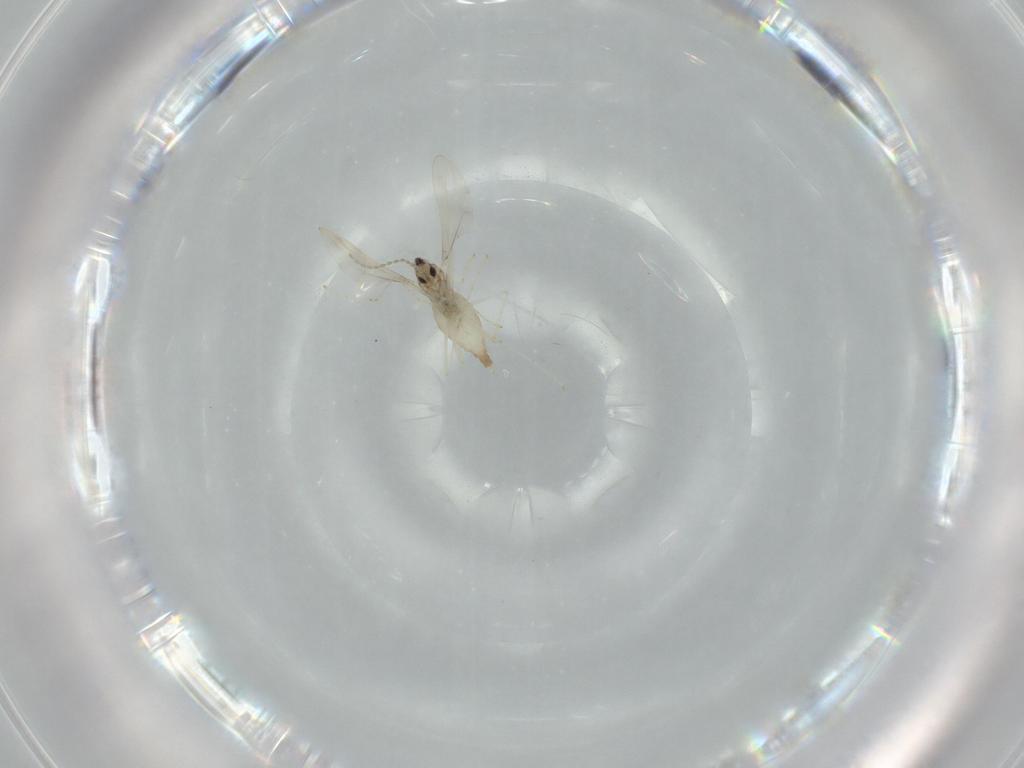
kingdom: Animalia
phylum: Arthropoda
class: Insecta
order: Diptera
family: Cecidomyiidae
